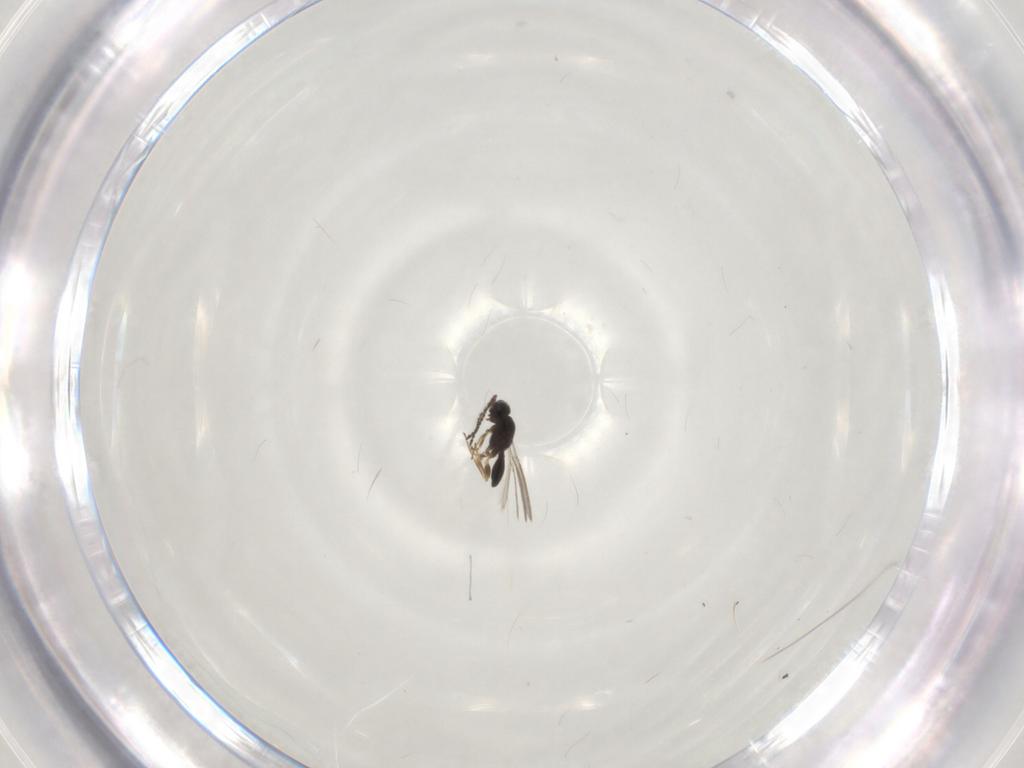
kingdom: Animalia
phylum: Arthropoda
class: Insecta
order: Hymenoptera
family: Scelionidae
